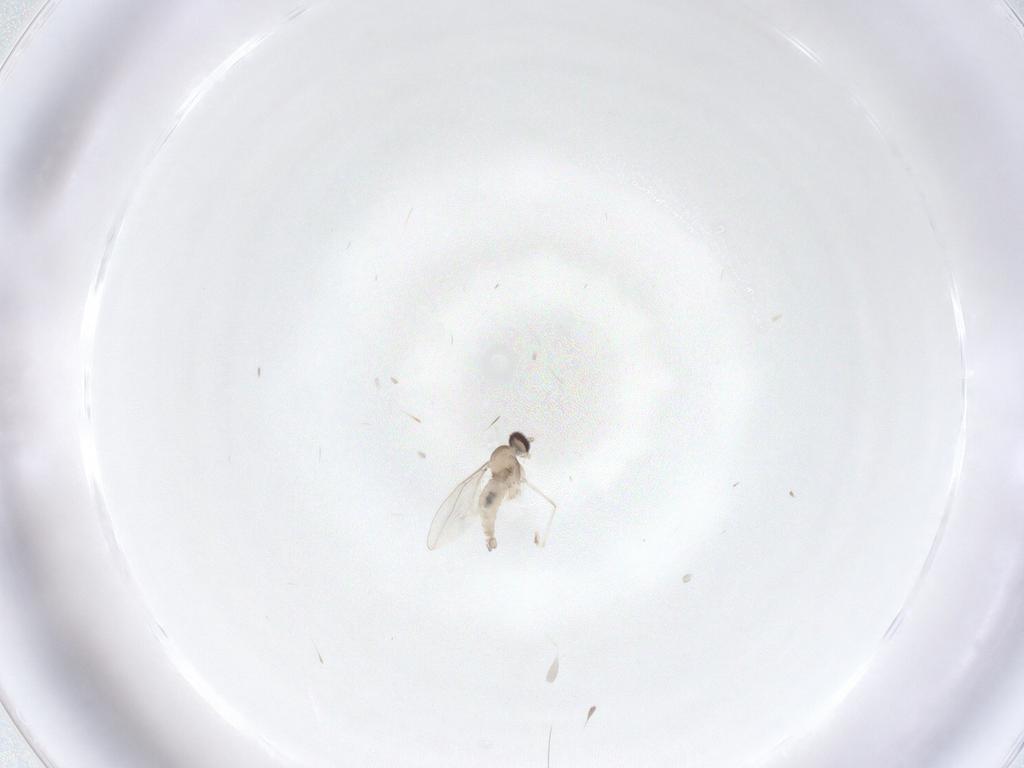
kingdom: Animalia
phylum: Arthropoda
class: Insecta
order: Diptera
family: Cecidomyiidae
